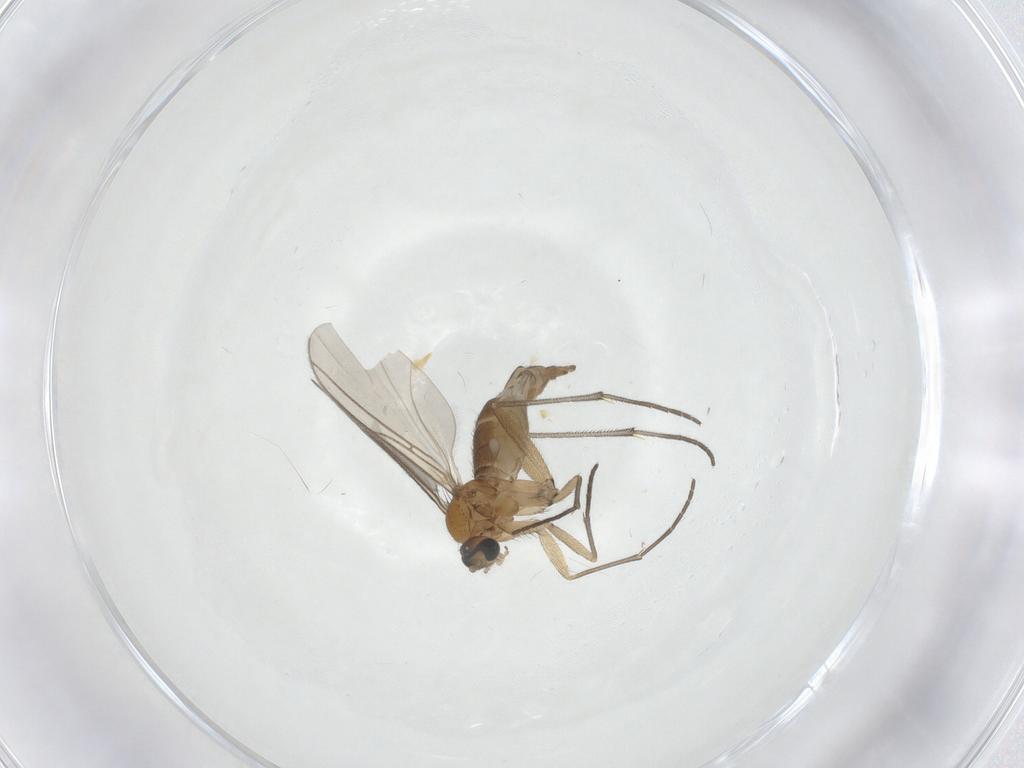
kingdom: Animalia
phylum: Arthropoda
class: Insecta
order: Diptera
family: Sciaridae
